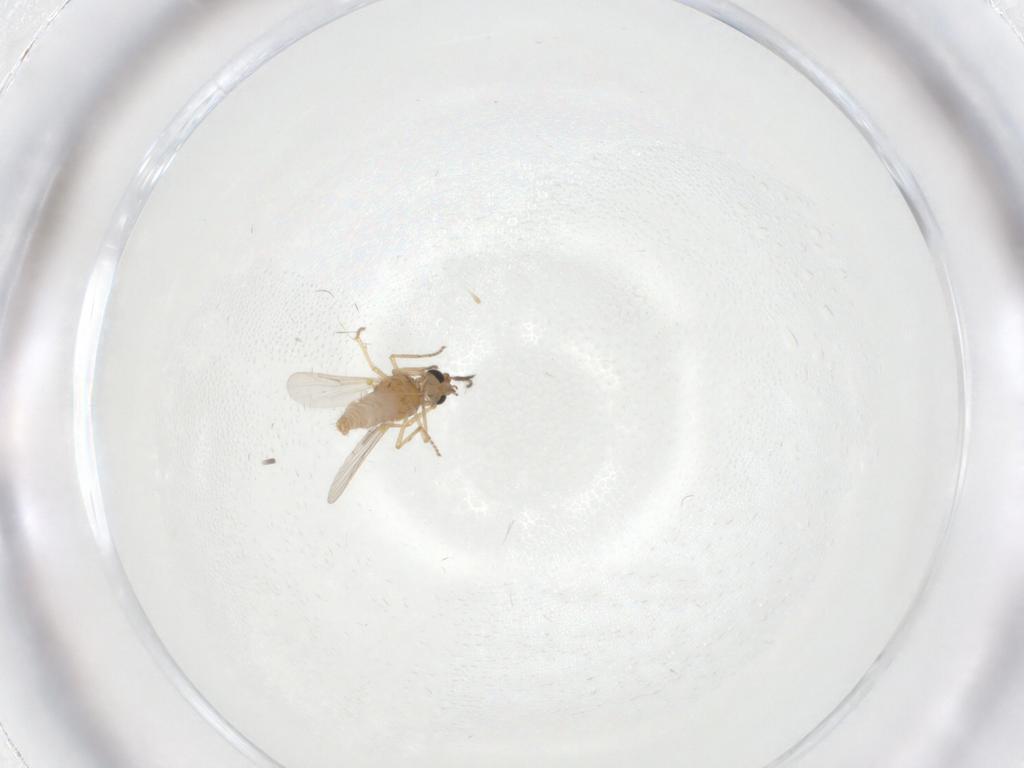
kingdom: Animalia
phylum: Arthropoda
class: Insecta
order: Diptera
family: Ceratopogonidae
